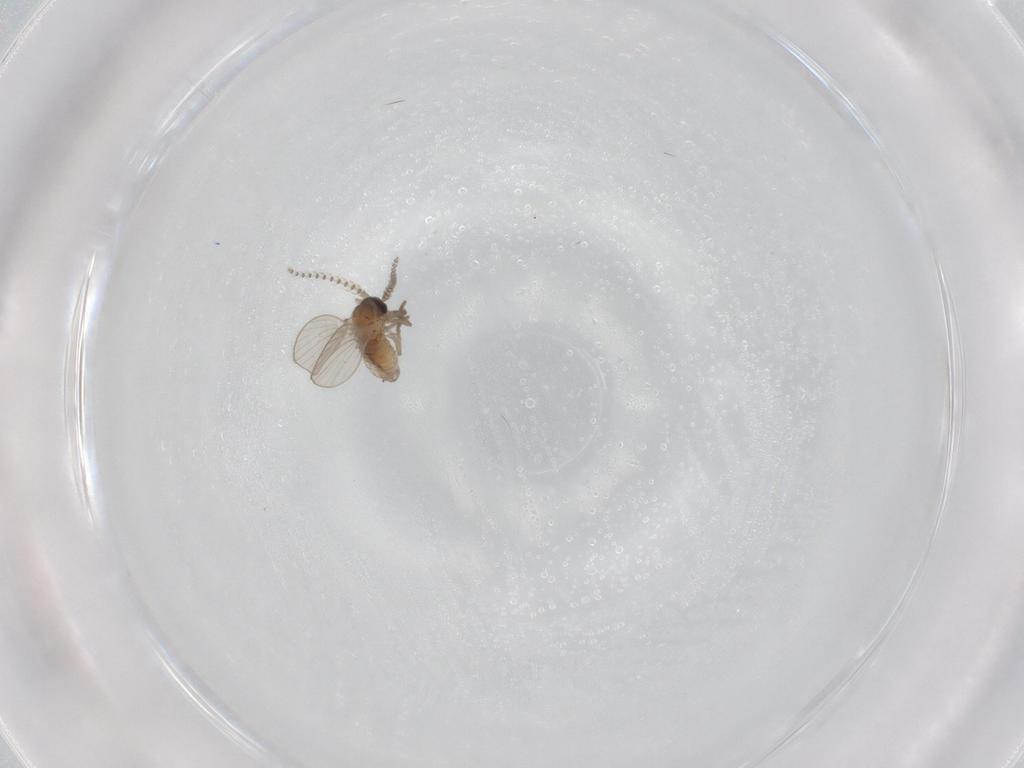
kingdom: Animalia
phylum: Arthropoda
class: Insecta
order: Diptera
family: Psychodidae
